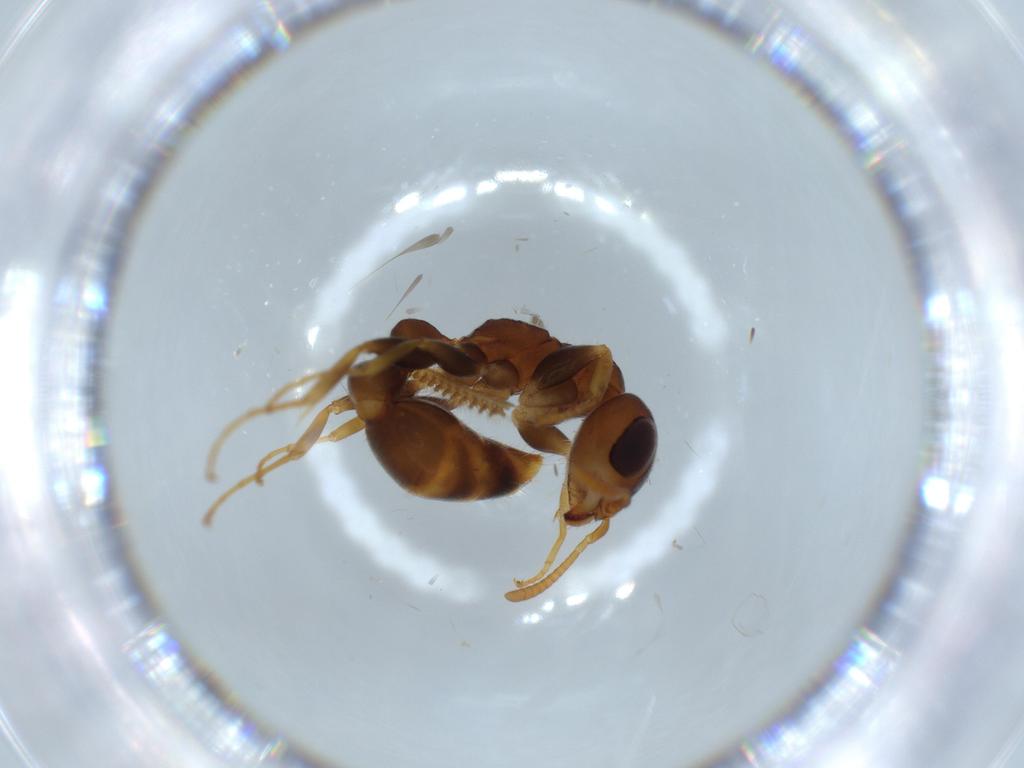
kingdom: Animalia
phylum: Arthropoda
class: Insecta
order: Hymenoptera
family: Formicidae
